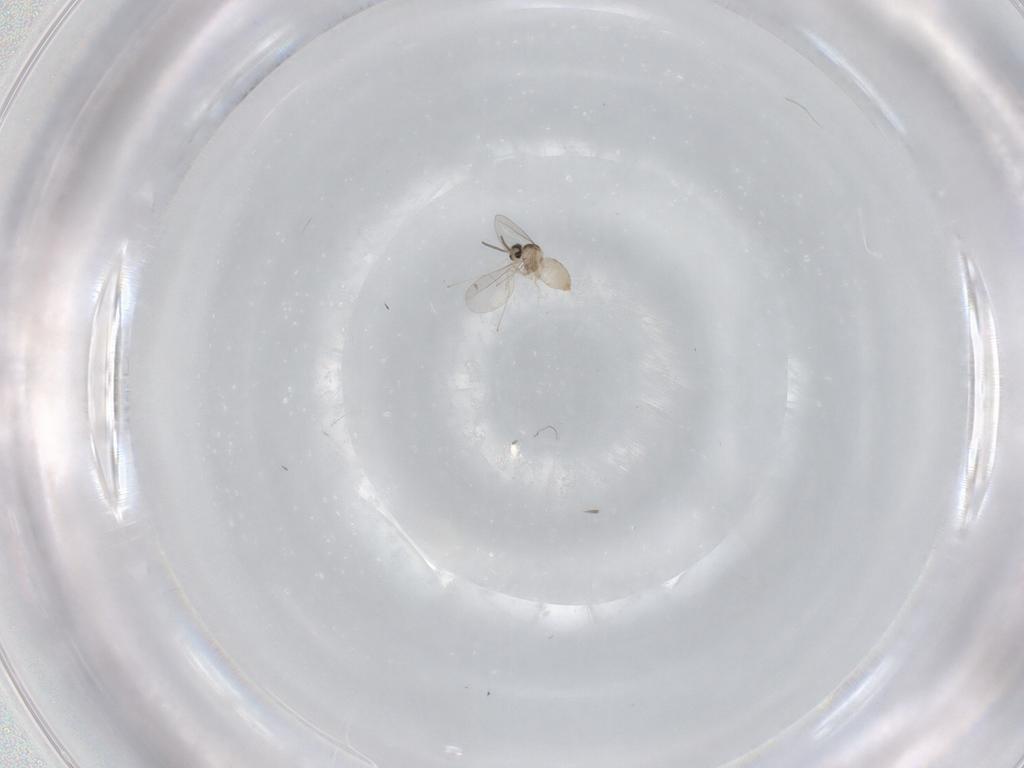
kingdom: Animalia
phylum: Arthropoda
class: Insecta
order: Diptera
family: Cecidomyiidae
